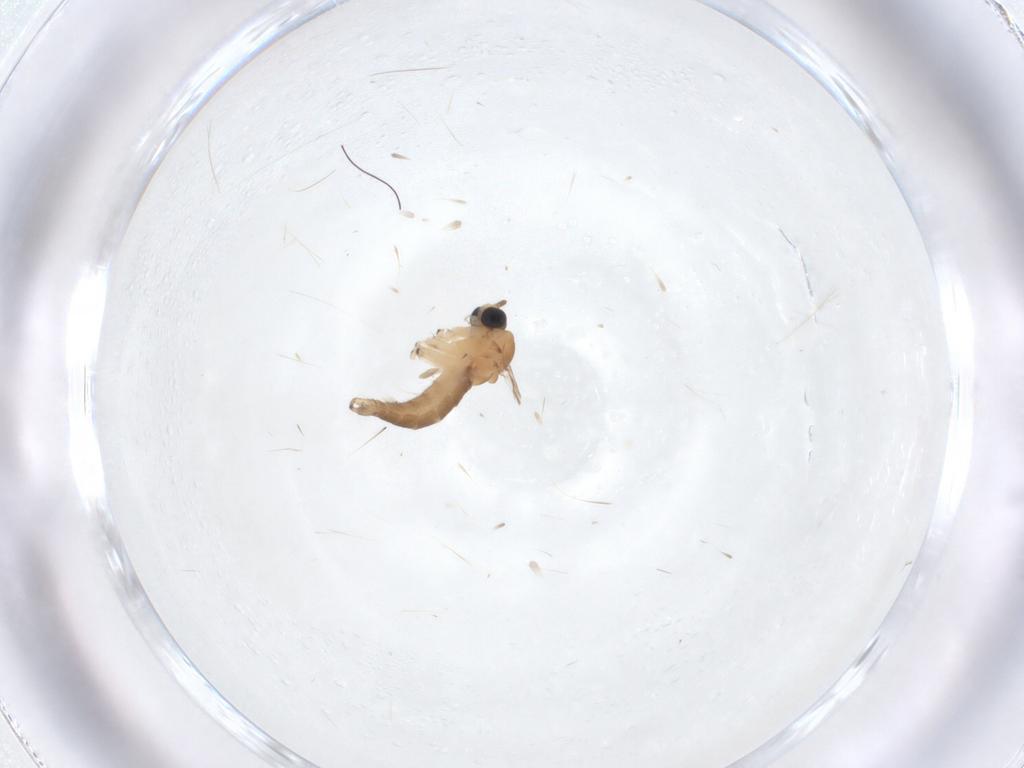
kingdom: Animalia
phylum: Arthropoda
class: Insecta
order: Diptera
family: Sciaridae
